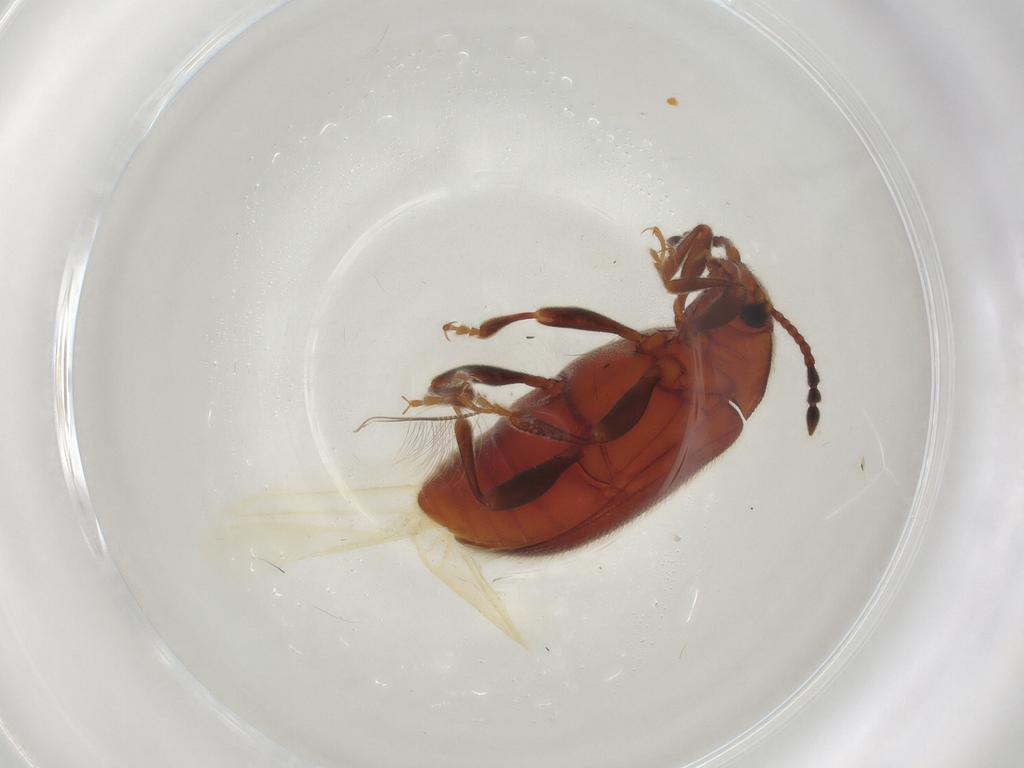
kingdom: Animalia
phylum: Arthropoda
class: Insecta
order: Coleoptera
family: Endomychidae
